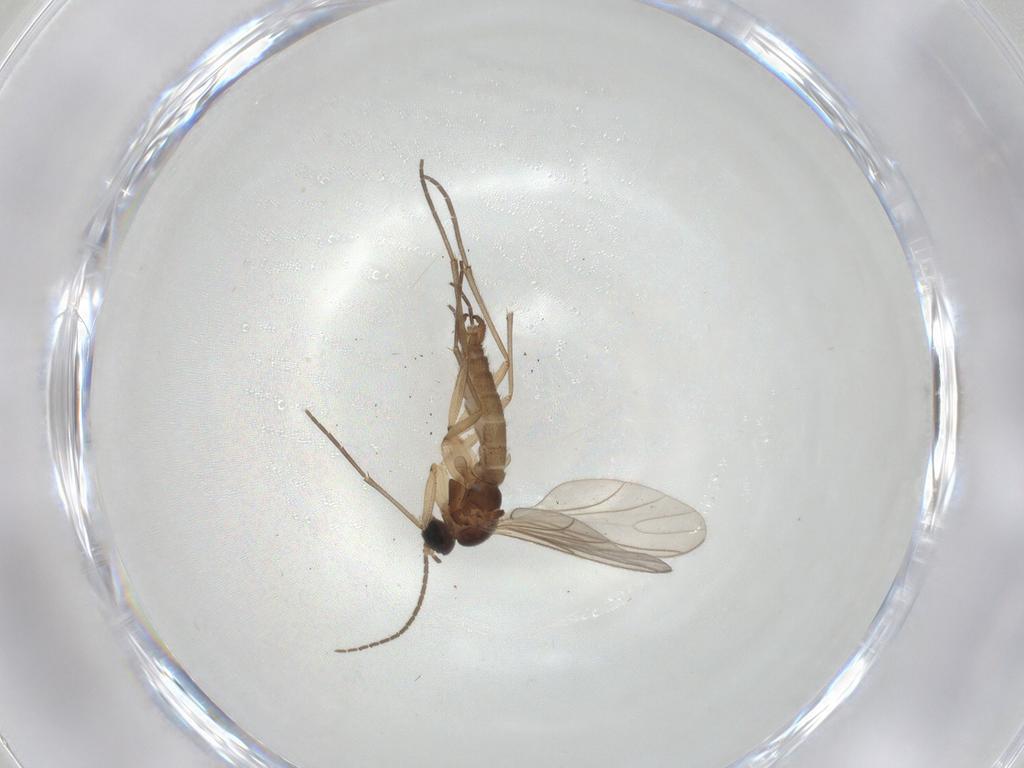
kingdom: Animalia
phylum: Arthropoda
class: Insecta
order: Diptera
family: Sciaridae
